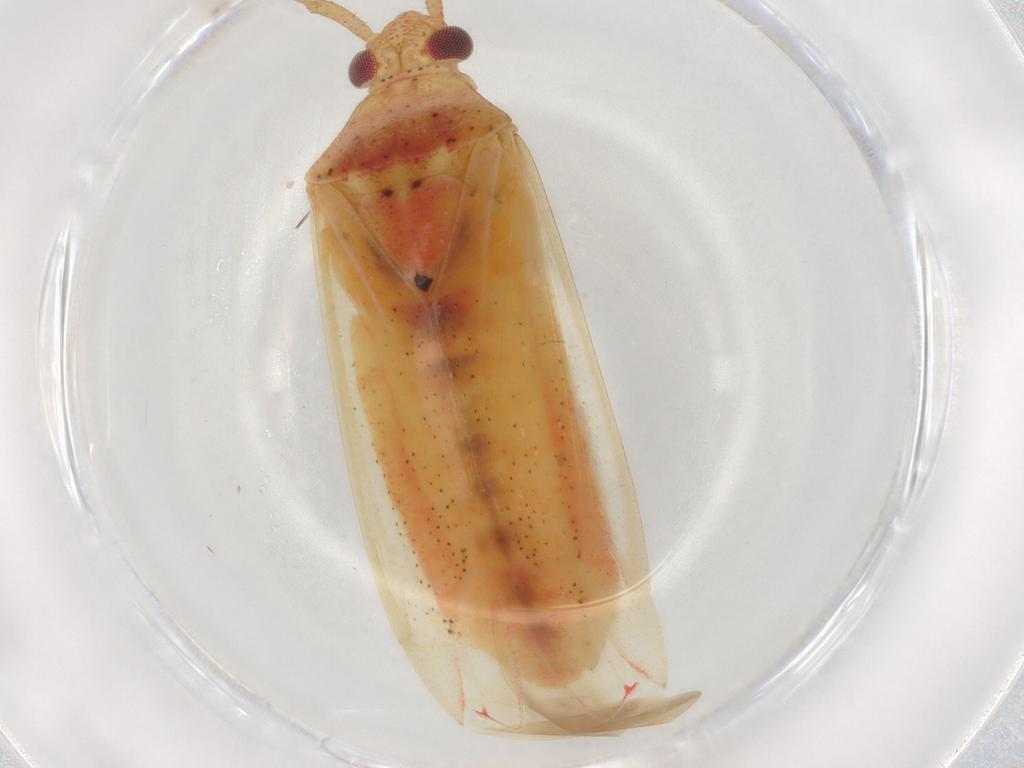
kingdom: Animalia
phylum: Arthropoda
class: Insecta
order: Hemiptera
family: Miridae
